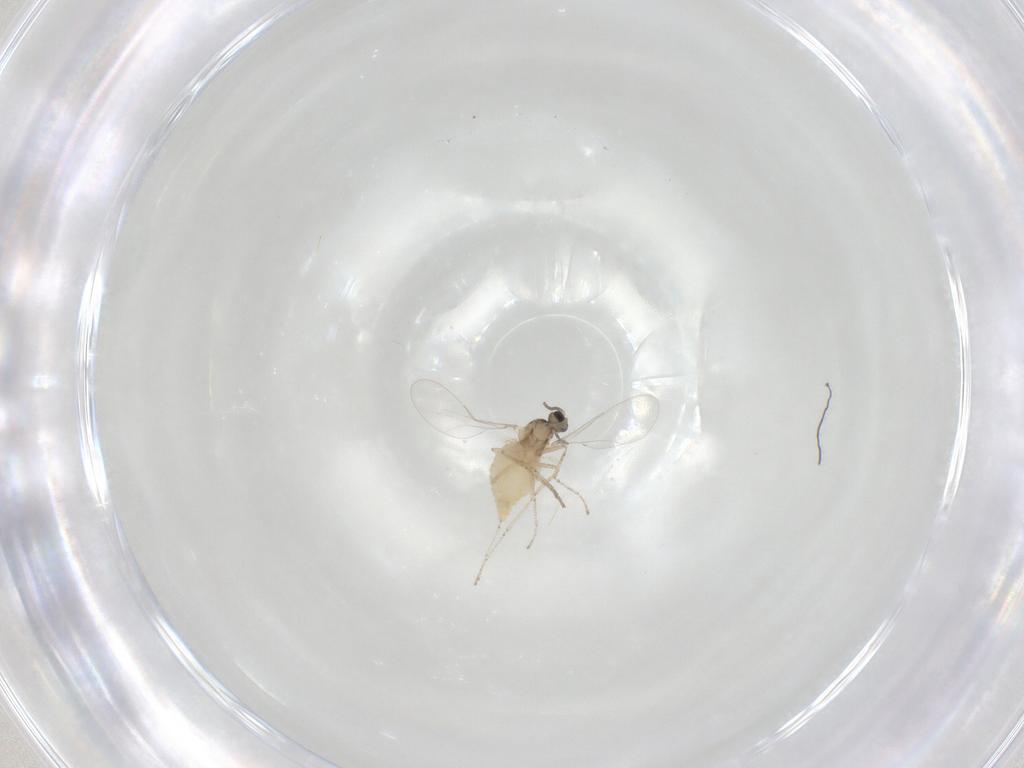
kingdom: Animalia
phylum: Arthropoda
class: Insecta
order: Diptera
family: Cecidomyiidae
